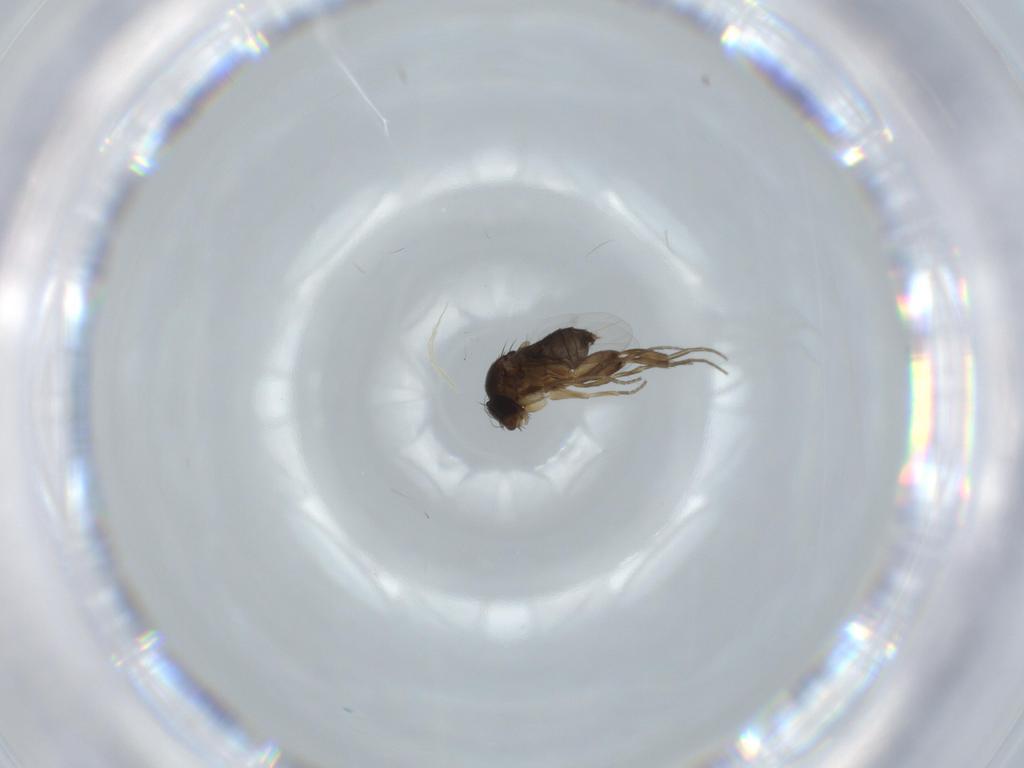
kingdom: Animalia
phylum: Arthropoda
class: Insecta
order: Diptera
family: Phoridae
